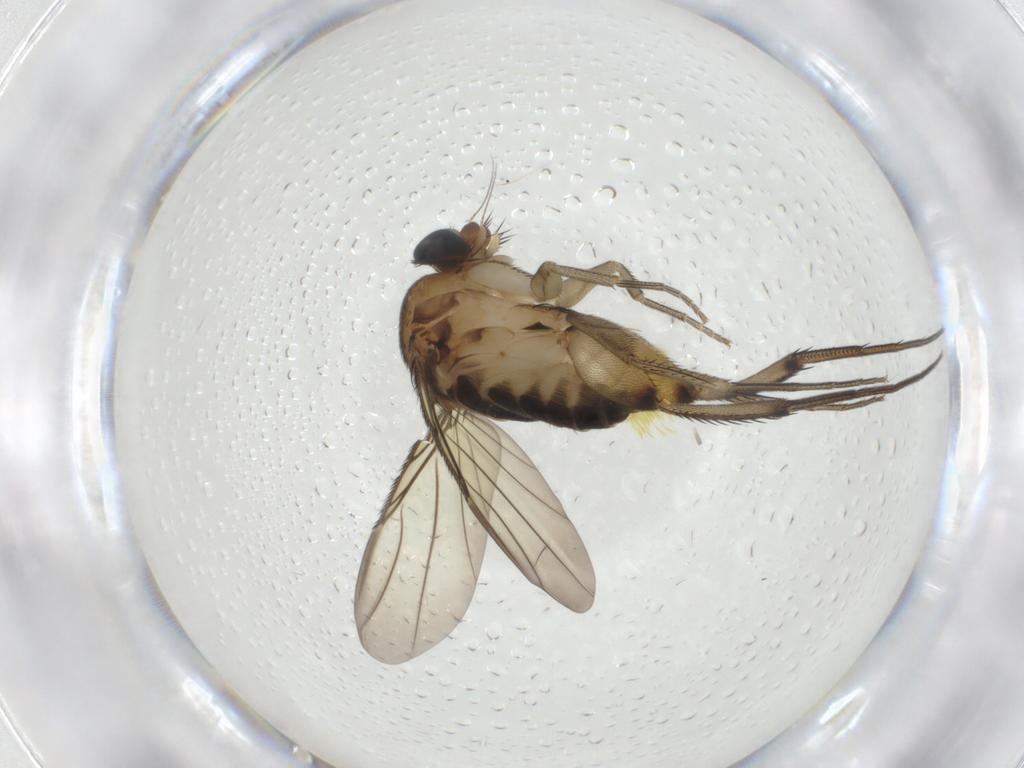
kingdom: Animalia
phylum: Arthropoda
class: Insecta
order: Diptera
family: Phoridae
